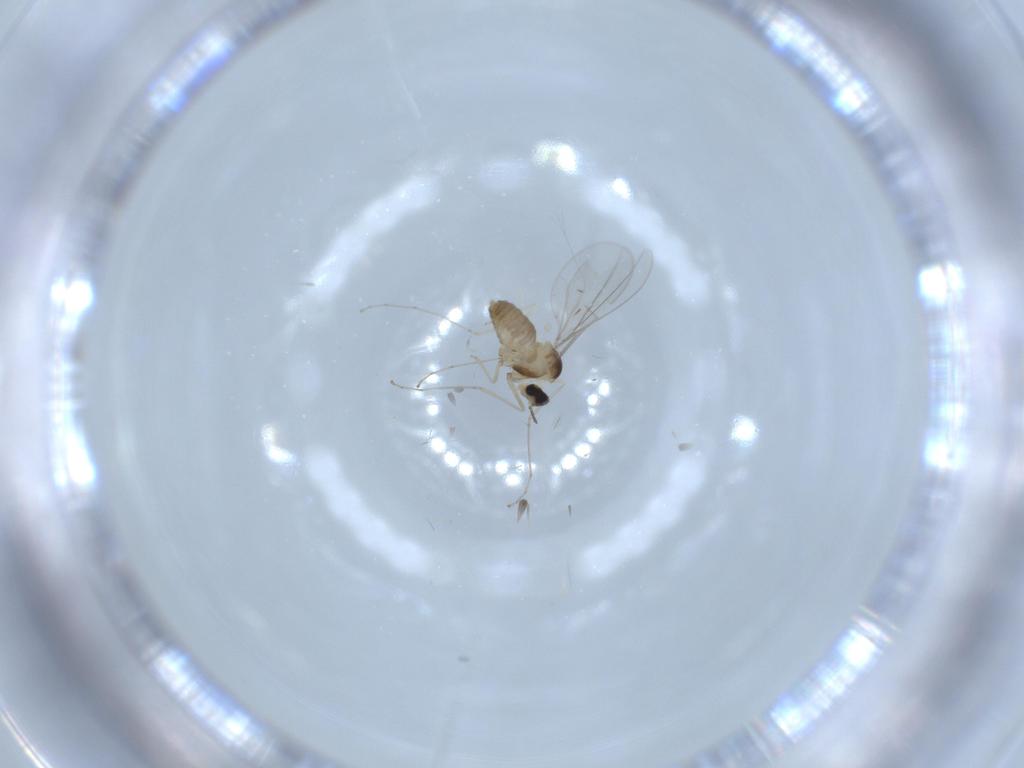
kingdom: Animalia
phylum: Arthropoda
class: Insecta
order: Diptera
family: Cecidomyiidae
